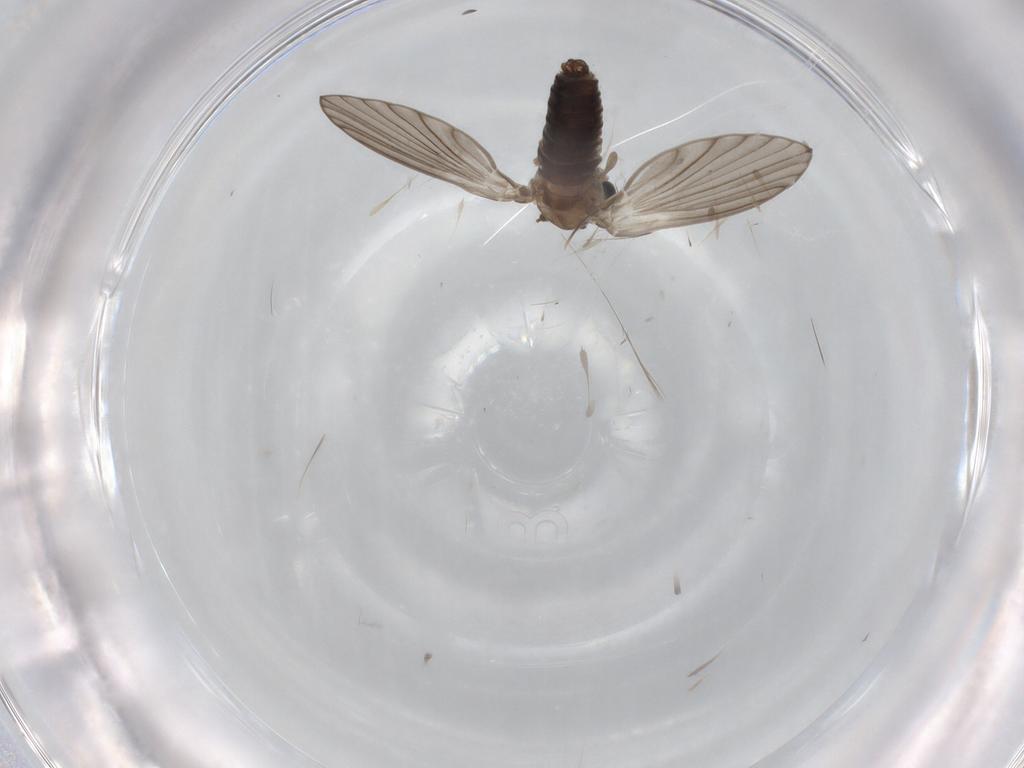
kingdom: Animalia
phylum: Arthropoda
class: Insecta
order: Diptera
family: Psychodidae
